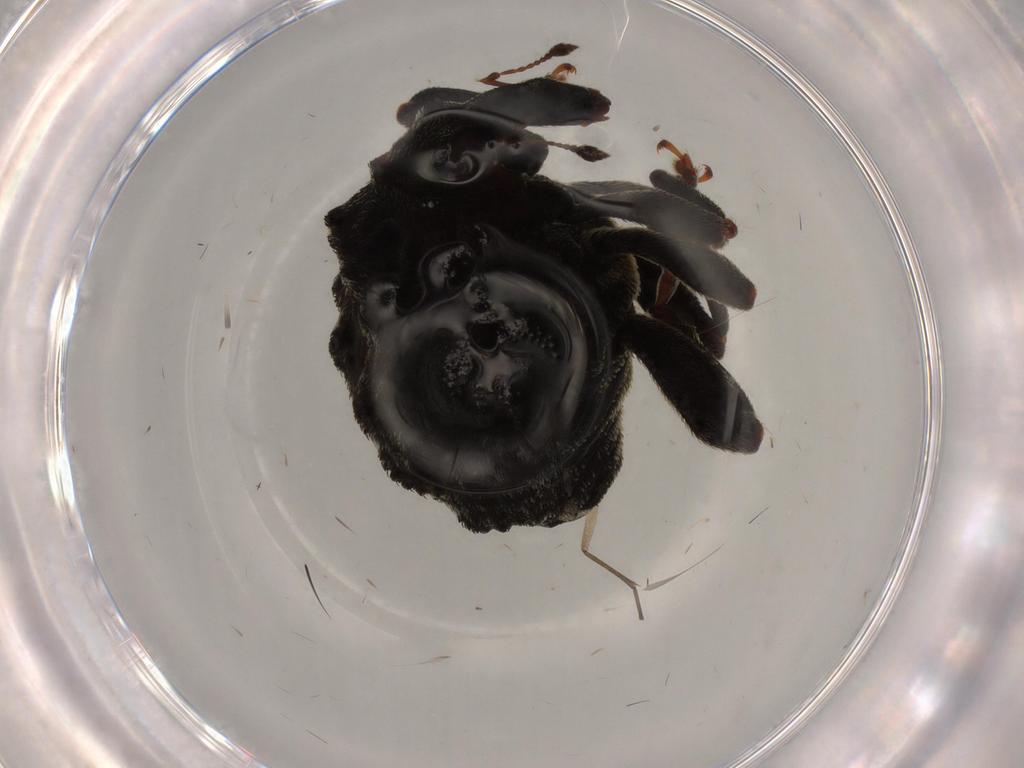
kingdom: Animalia
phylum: Arthropoda
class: Insecta
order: Coleoptera
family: Curculionidae
